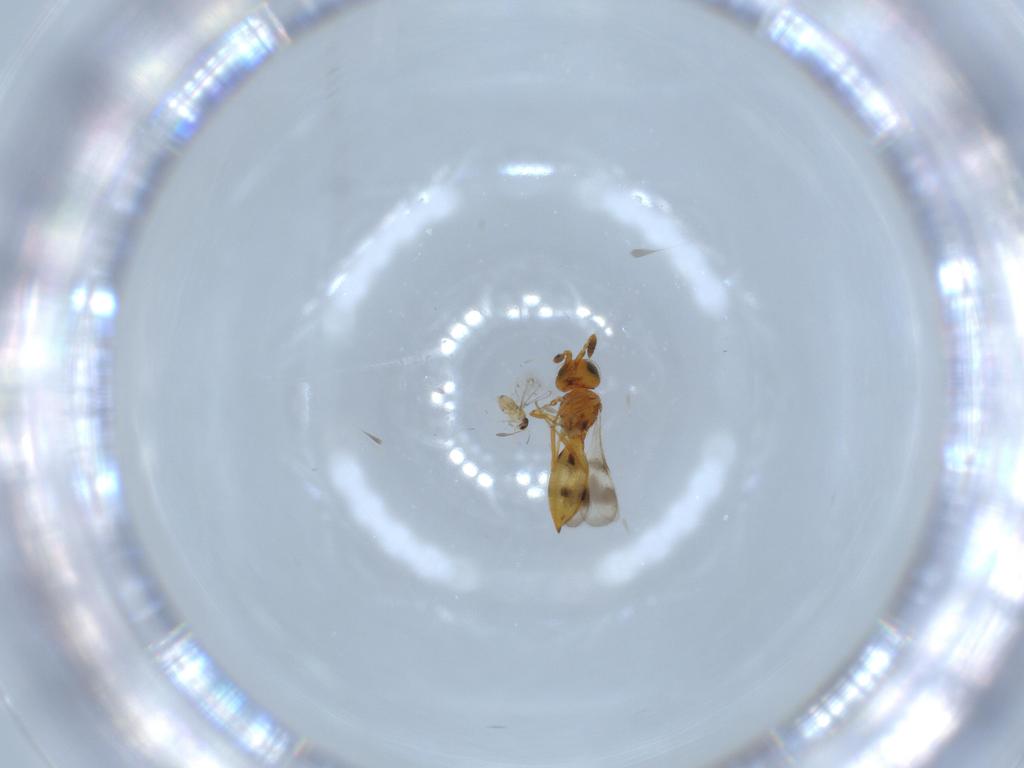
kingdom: Animalia
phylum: Arthropoda
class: Insecta
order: Hymenoptera
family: Scelionidae
